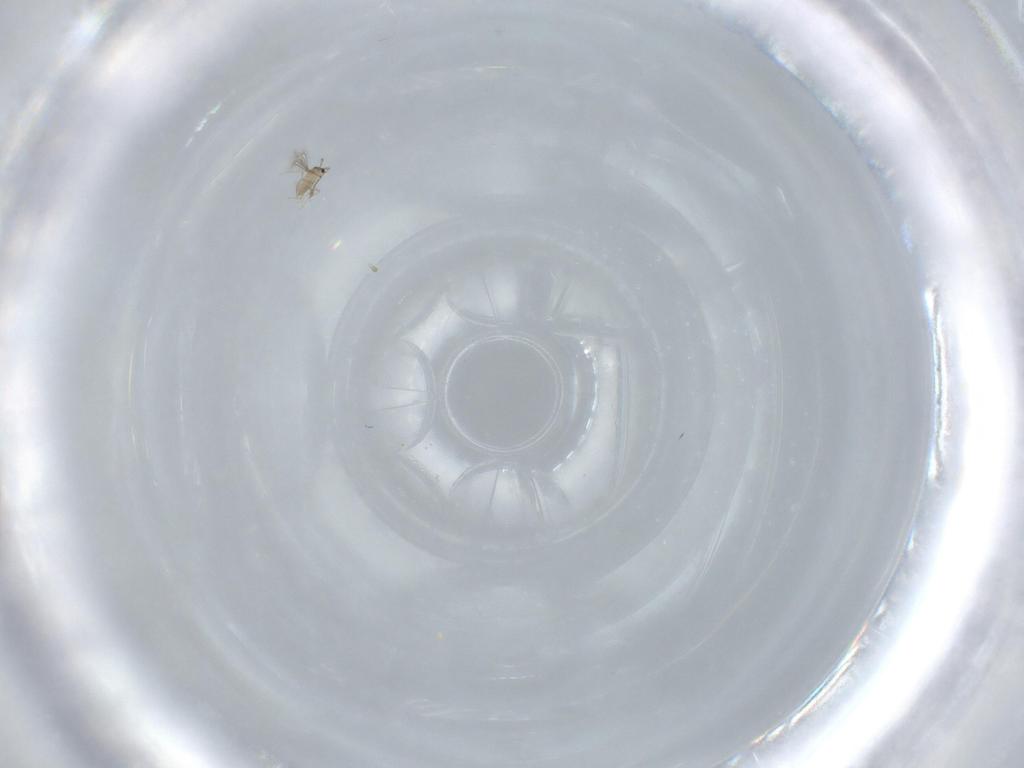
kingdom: Animalia
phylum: Arthropoda
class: Insecta
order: Hymenoptera
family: Mymaridae
